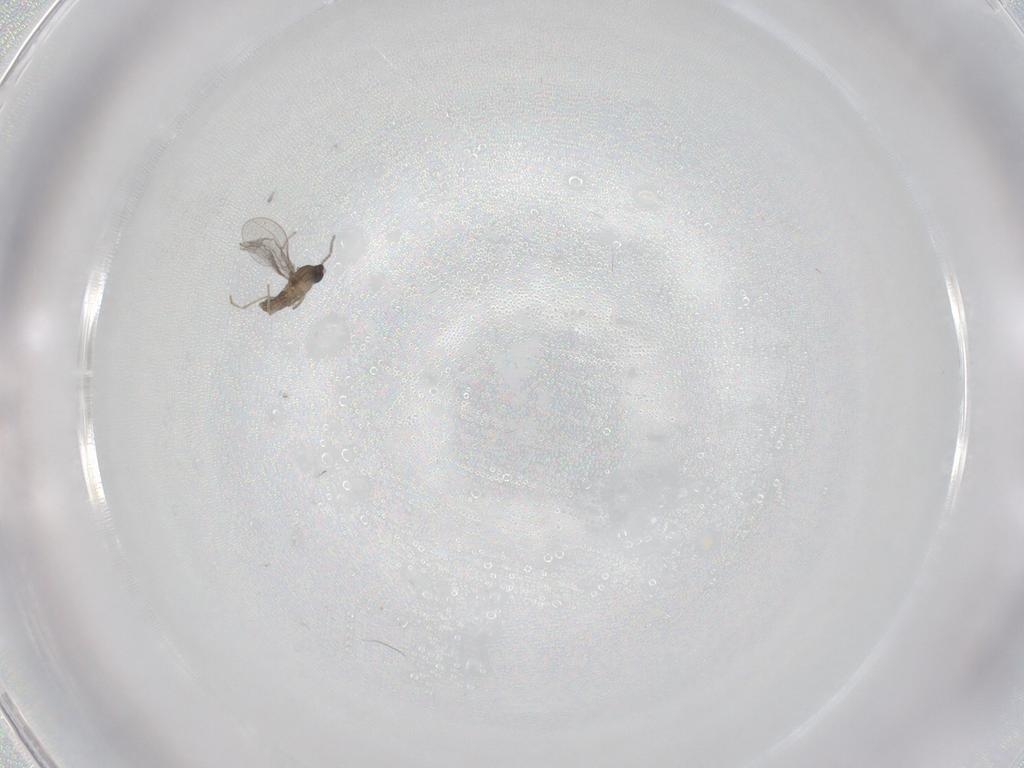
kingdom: Animalia
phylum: Arthropoda
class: Insecta
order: Diptera
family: Cecidomyiidae
